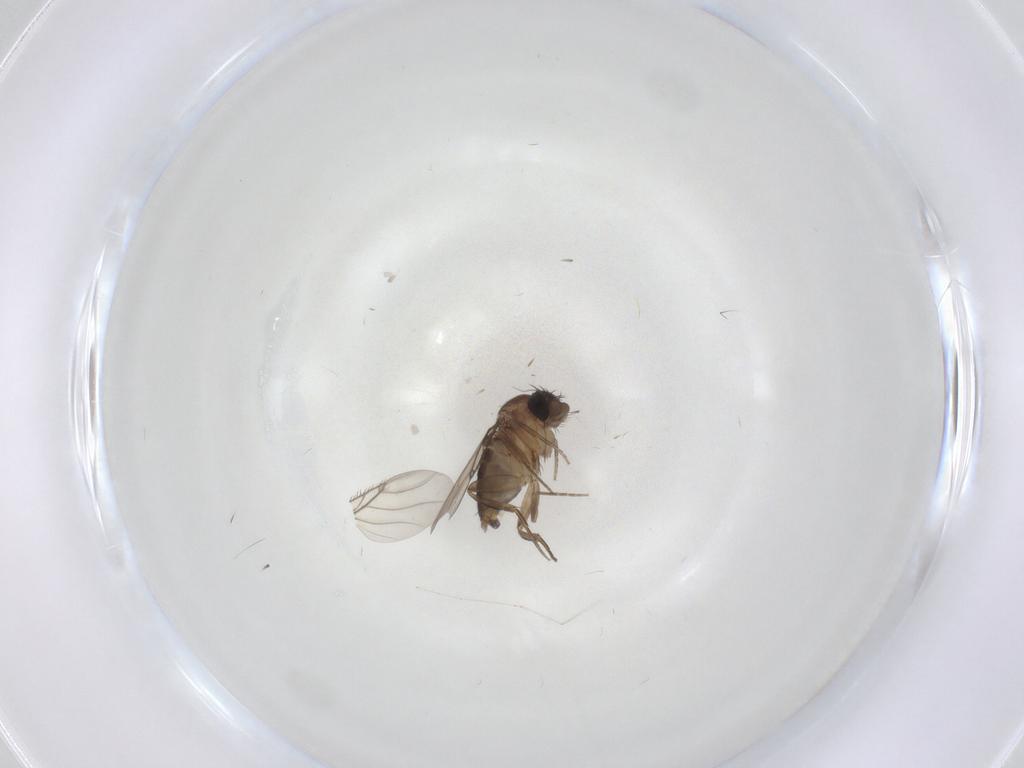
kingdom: Animalia
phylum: Arthropoda
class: Insecta
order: Diptera
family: Phoridae
